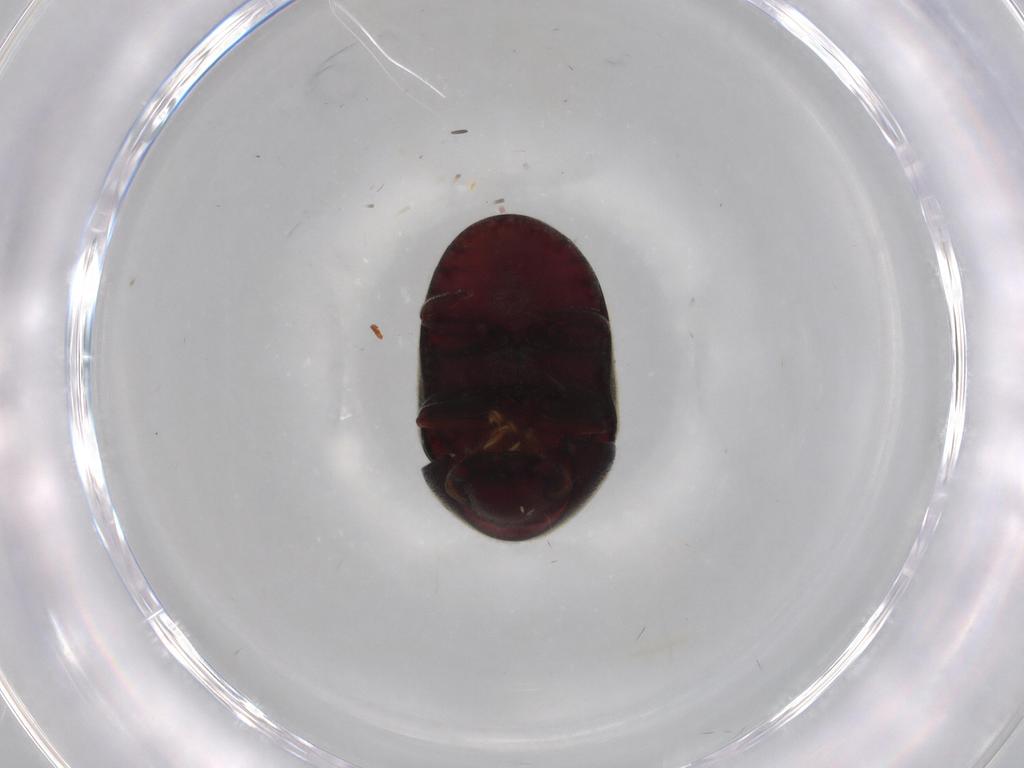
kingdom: Animalia
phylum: Arthropoda
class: Insecta
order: Coleoptera
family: Ptinidae
